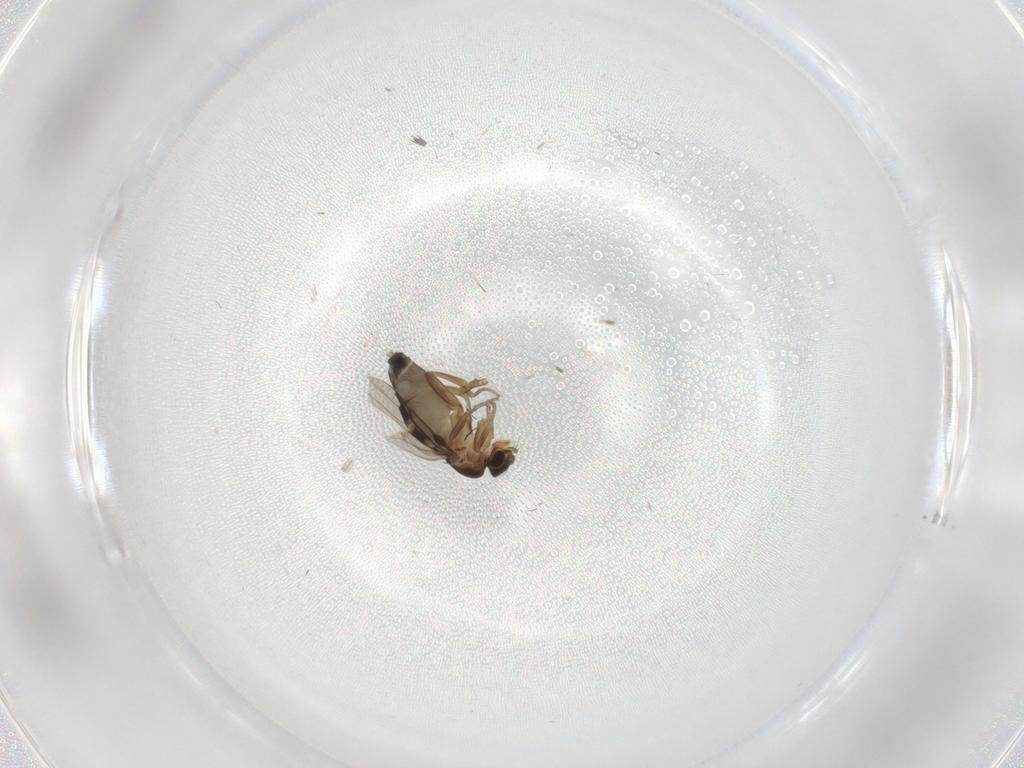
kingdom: Animalia
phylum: Arthropoda
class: Insecta
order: Diptera
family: Phoridae
